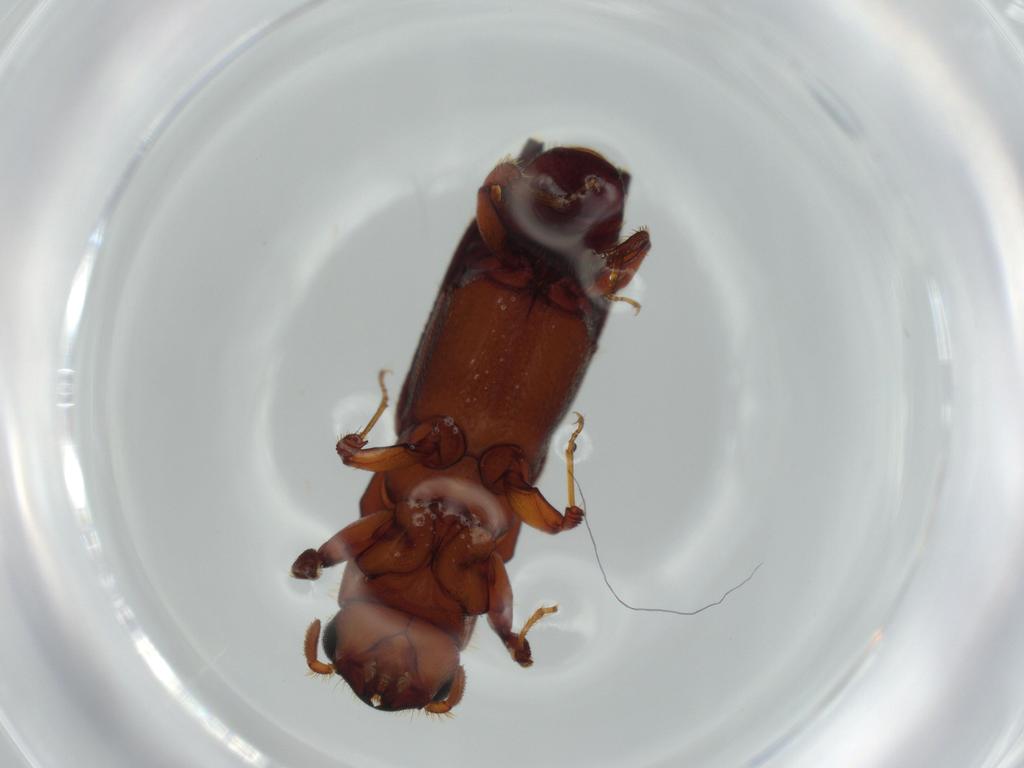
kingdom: Animalia
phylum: Arthropoda
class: Insecta
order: Coleoptera
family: Curculionidae
